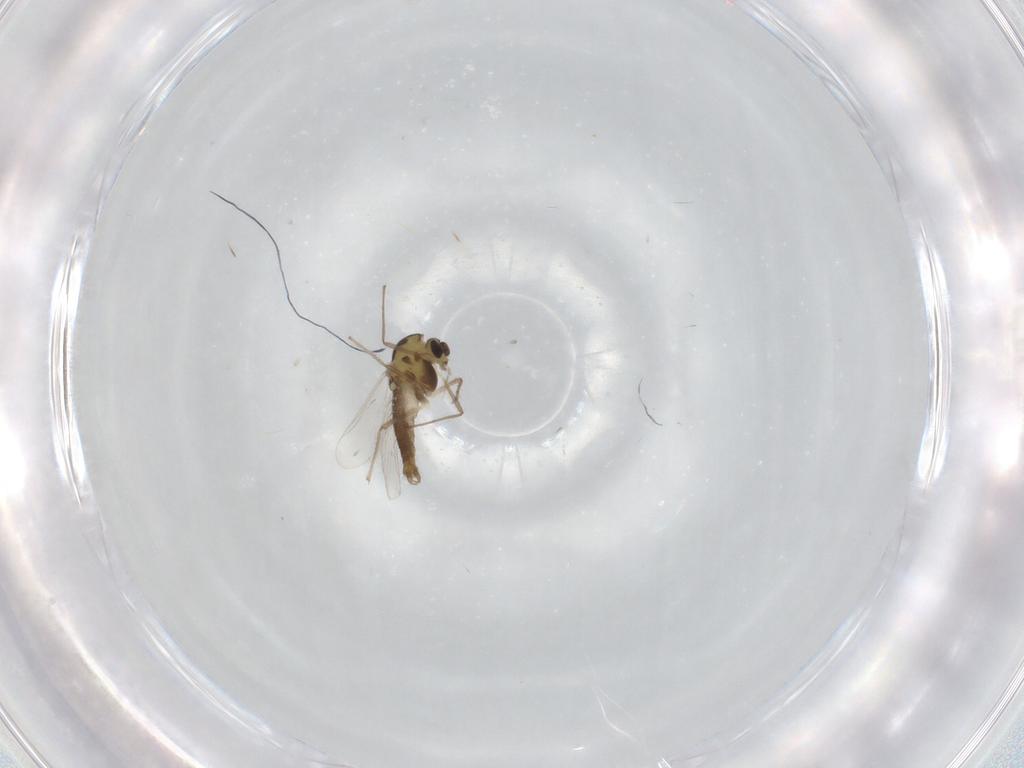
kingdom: Animalia
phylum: Arthropoda
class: Insecta
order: Diptera
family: Chironomidae
